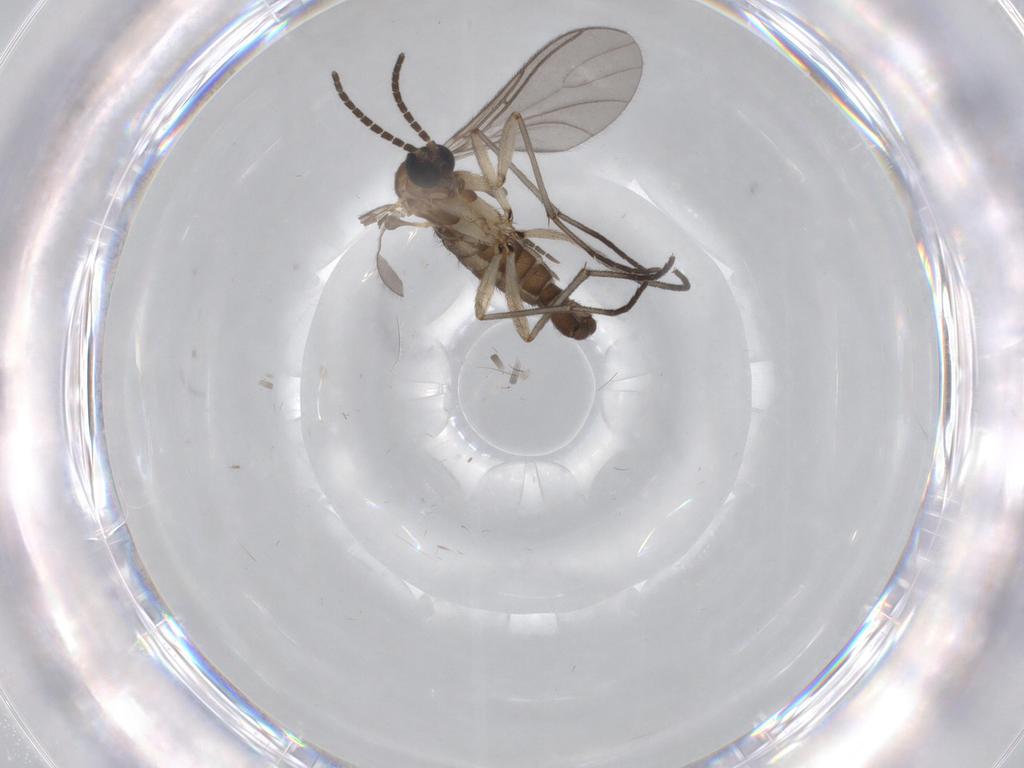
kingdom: Animalia
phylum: Arthropoda
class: Insecta
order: Diptera
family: Sciaridae
